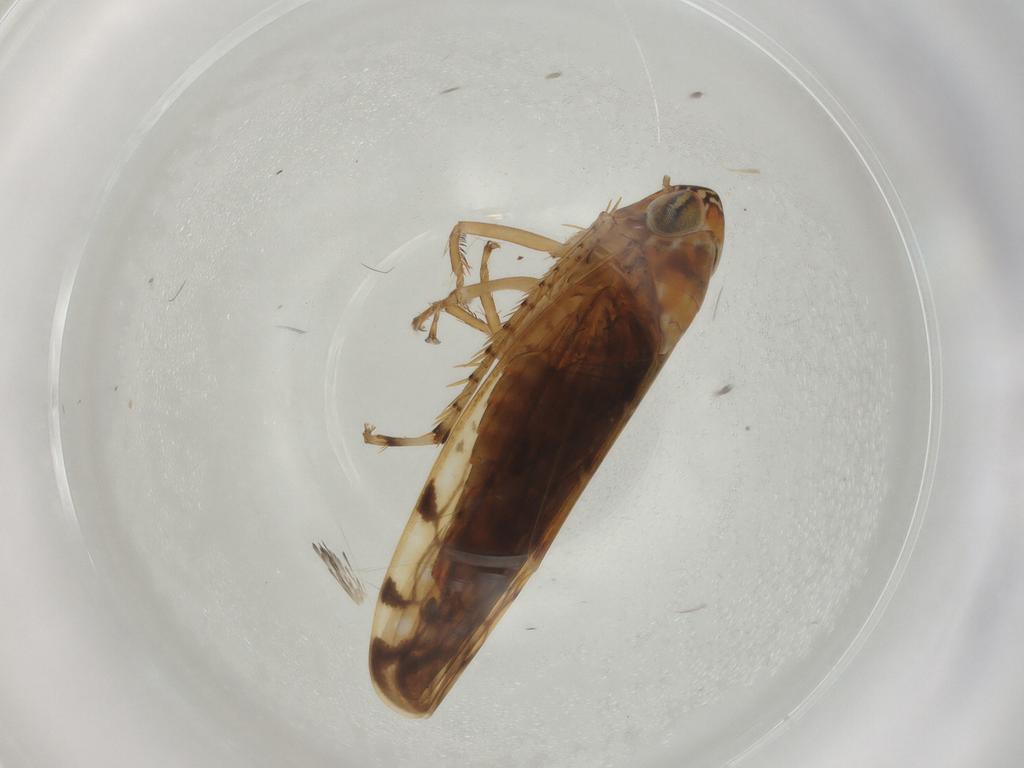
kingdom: Animalia
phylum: Arthropoda
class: Insecta
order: Hemiptera
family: Cicadellidae
